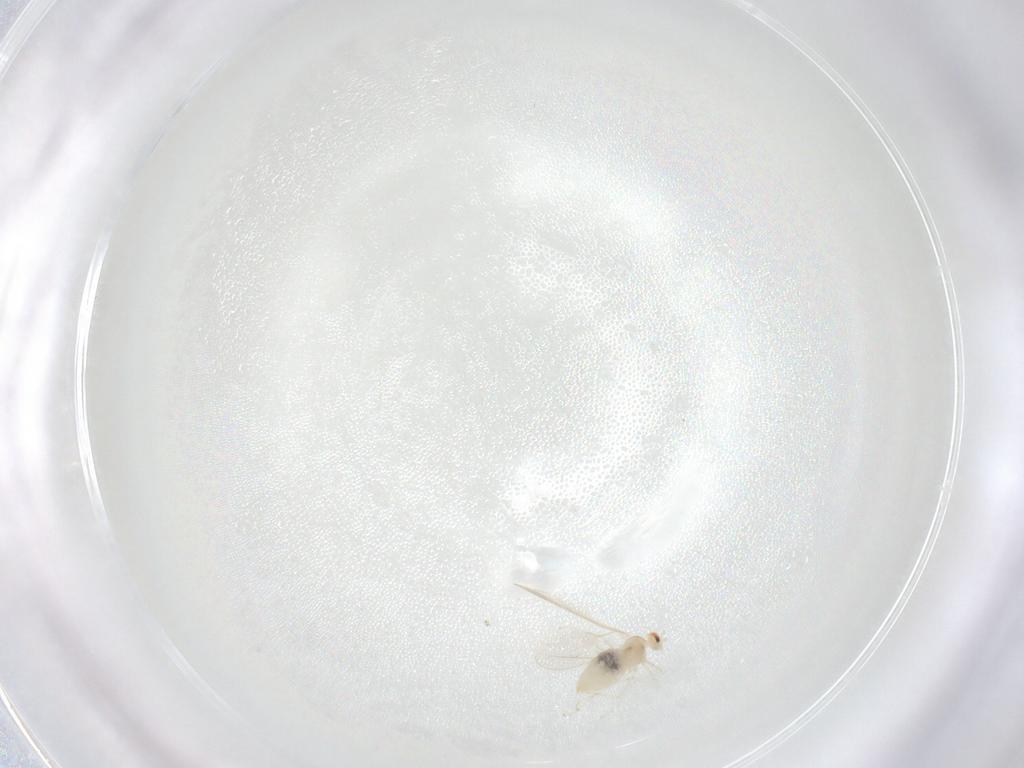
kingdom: Animalia
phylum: Arthropoda
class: Insecta
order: Diptera
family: Cecidomyiidae
